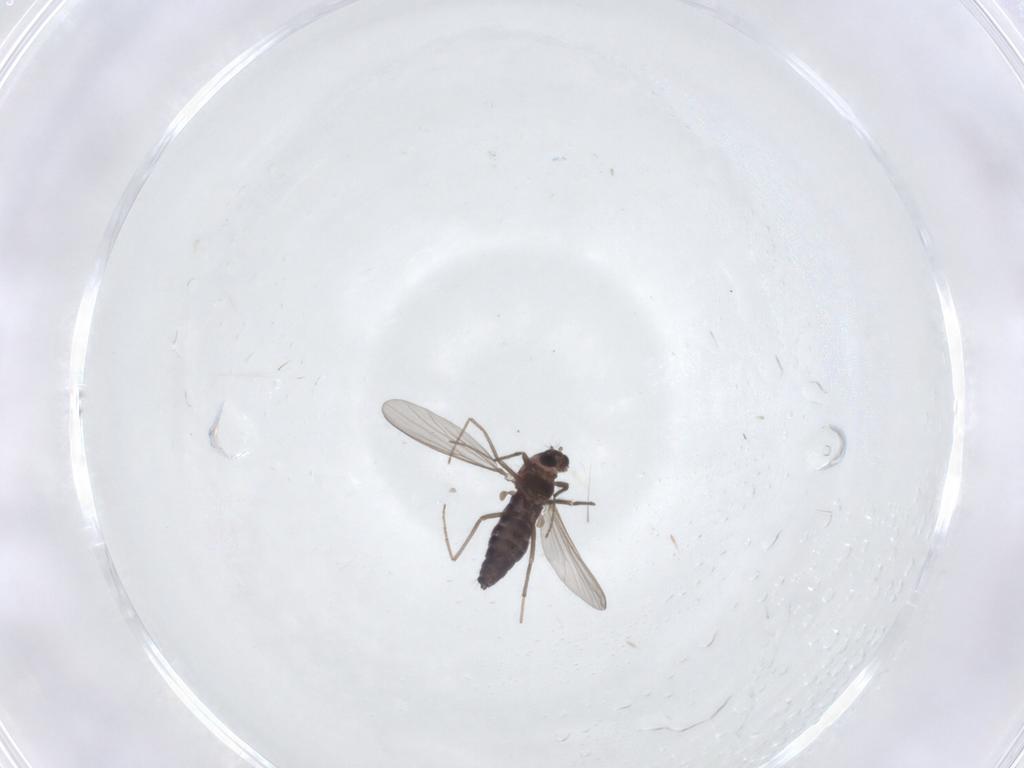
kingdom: Animalia
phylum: Arthropoda
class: Insecta
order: Diptera
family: Chironomidae
